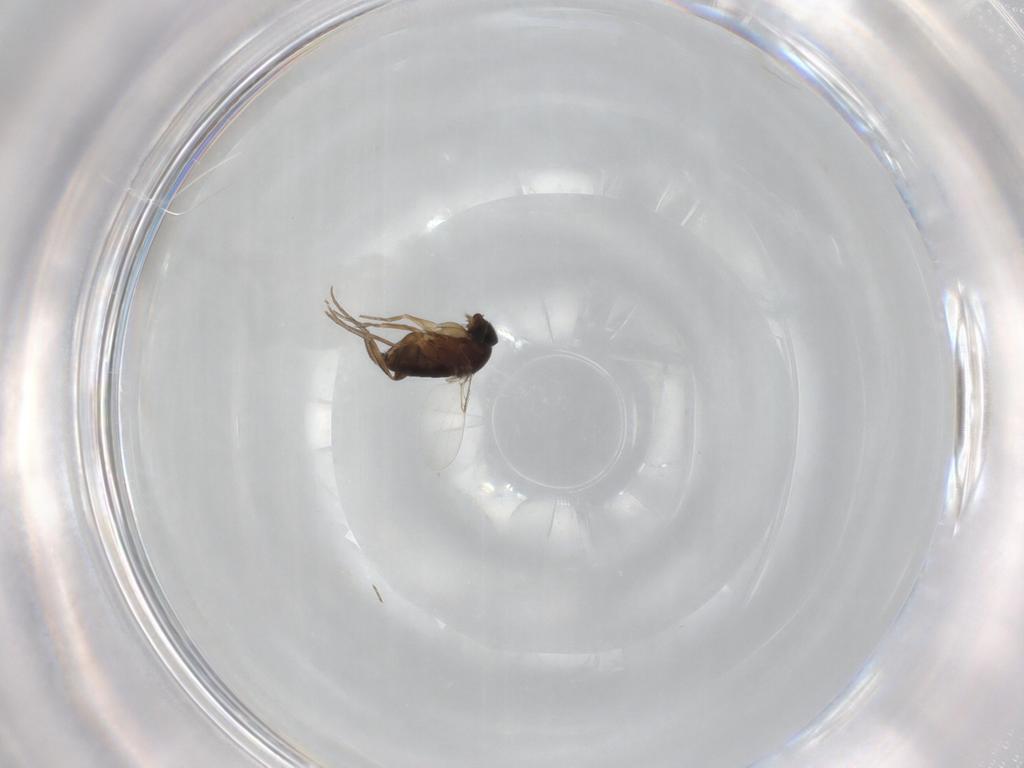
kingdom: Animalia
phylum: Arthropoda
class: Insecta
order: Diptera
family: Phoridae
